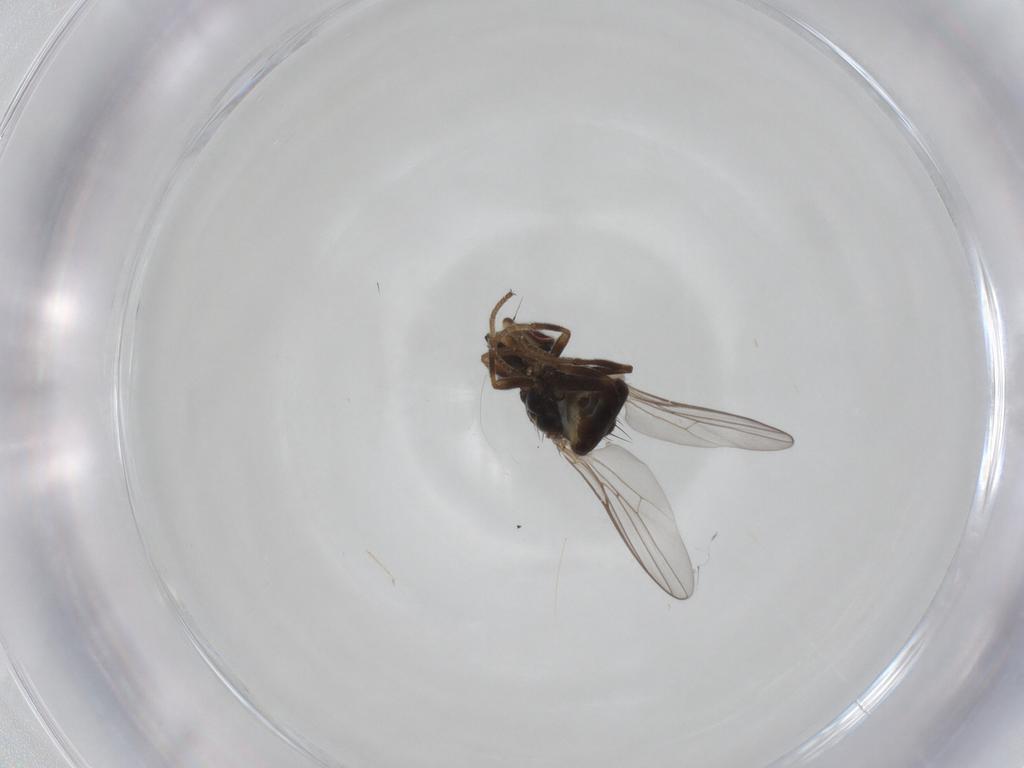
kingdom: Animalia
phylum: Arthropoda
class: Insecta
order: Diptera
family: Chloropidae
